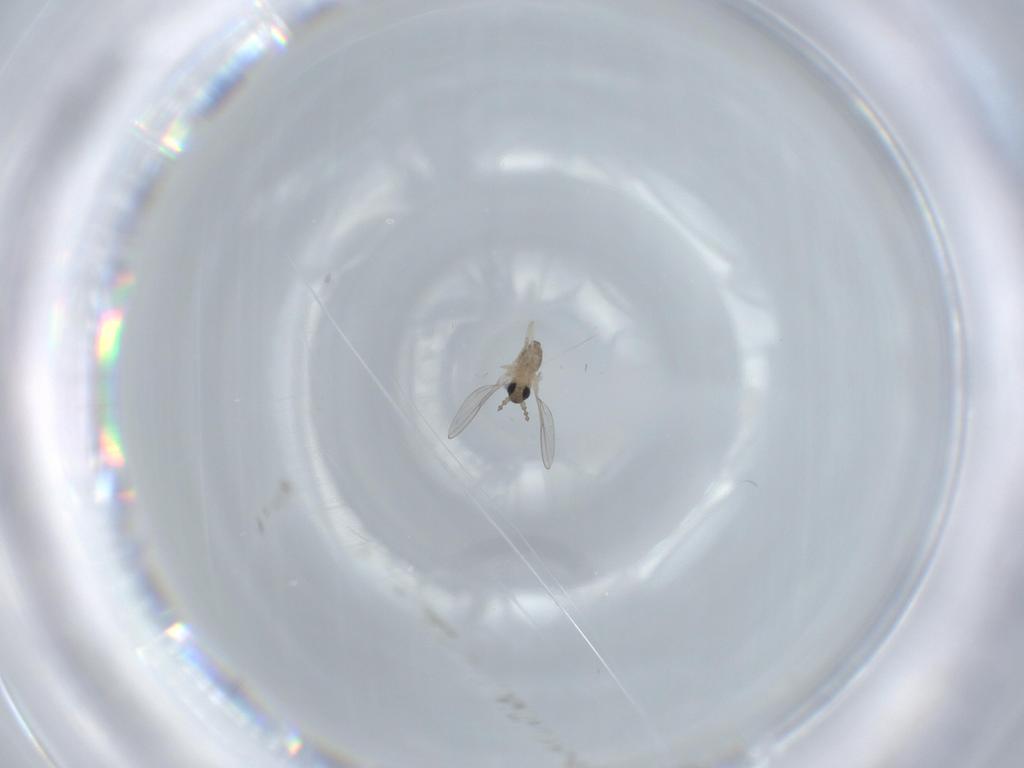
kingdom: Animalia
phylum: Arthropoda
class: Insecta
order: Diptera
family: Cecidomyiidae
